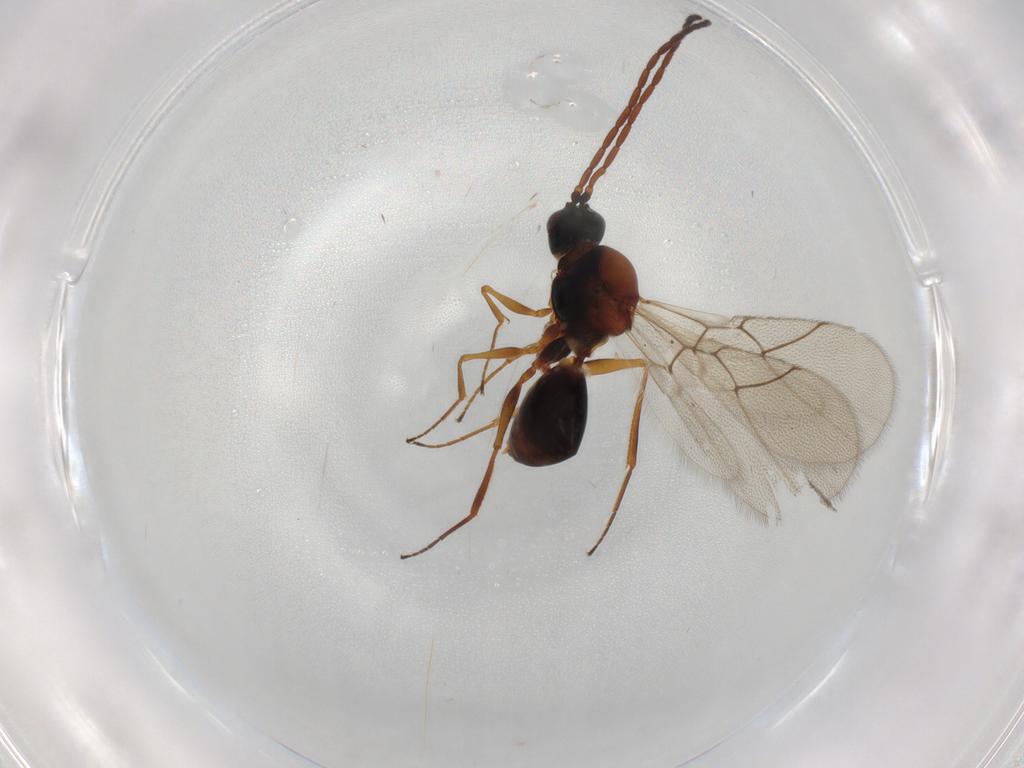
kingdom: Animalia
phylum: Arthropoda
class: Insecta
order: Hymenoptera
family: Figitidae
